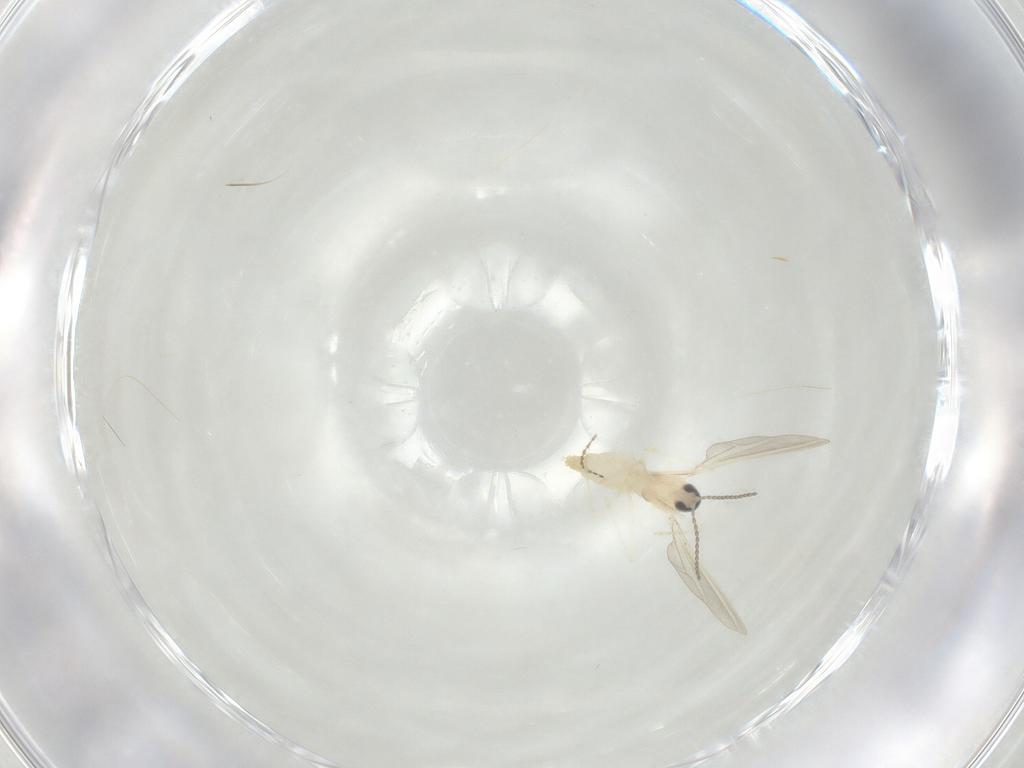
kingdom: Animalia
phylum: Arthropoda
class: Insecta
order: Diptera
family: Cecidomyiidae
